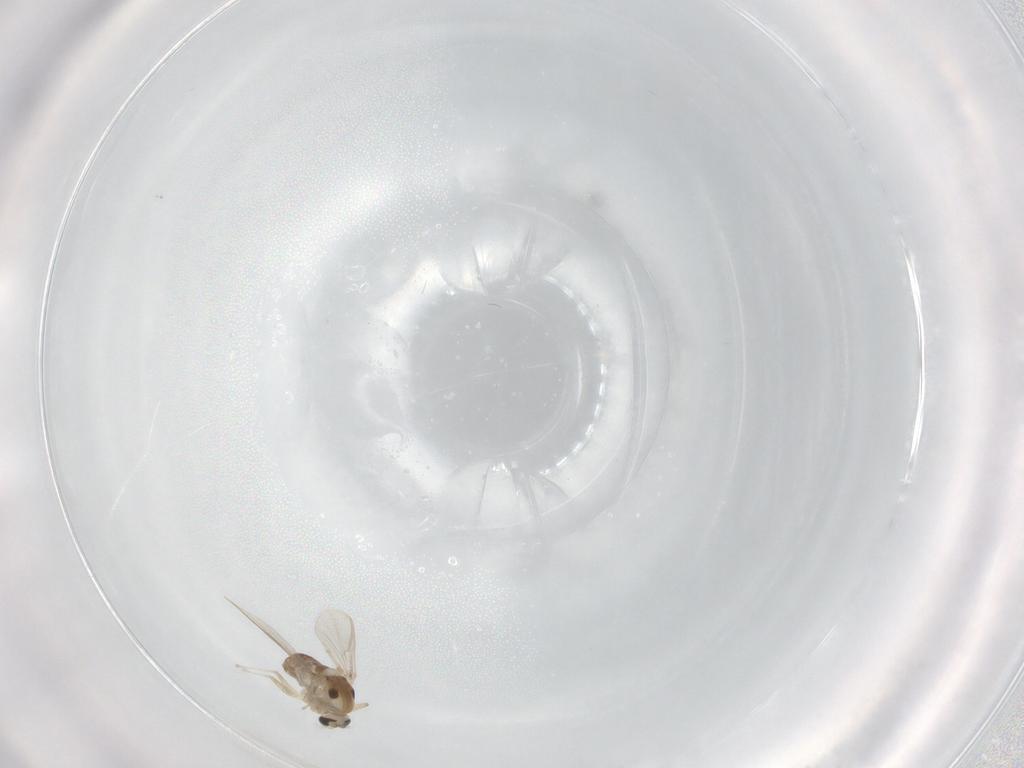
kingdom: Animalia
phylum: Arthropoda
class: Insecta
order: Diptera
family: Chironomidae
